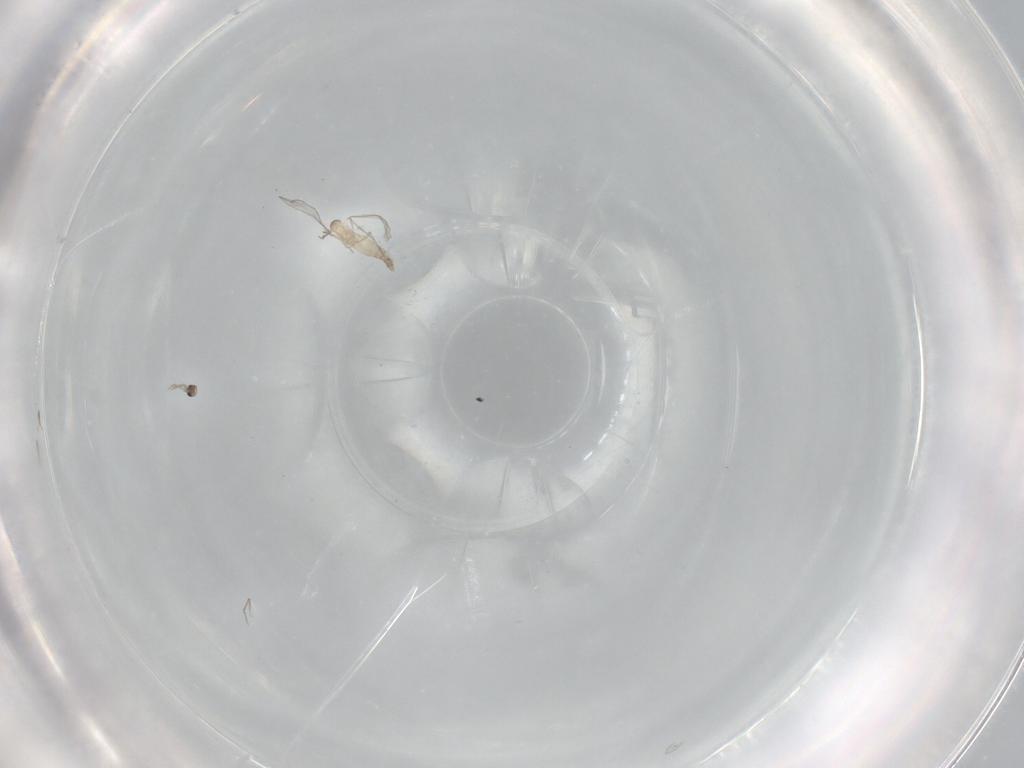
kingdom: Animalia
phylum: Arthropoda
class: Insecta
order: Diptera
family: Cecidomyiidae
